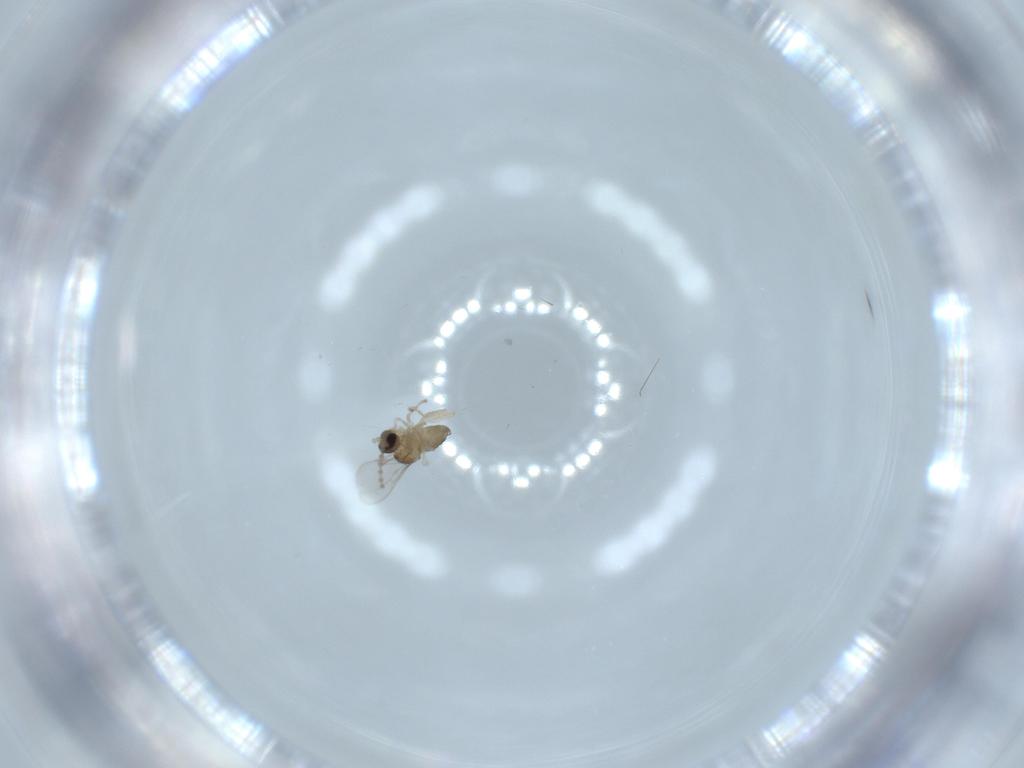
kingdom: Animalia
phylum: Arthropoda
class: Insecta
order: Diptera
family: Cecidomyiidae
